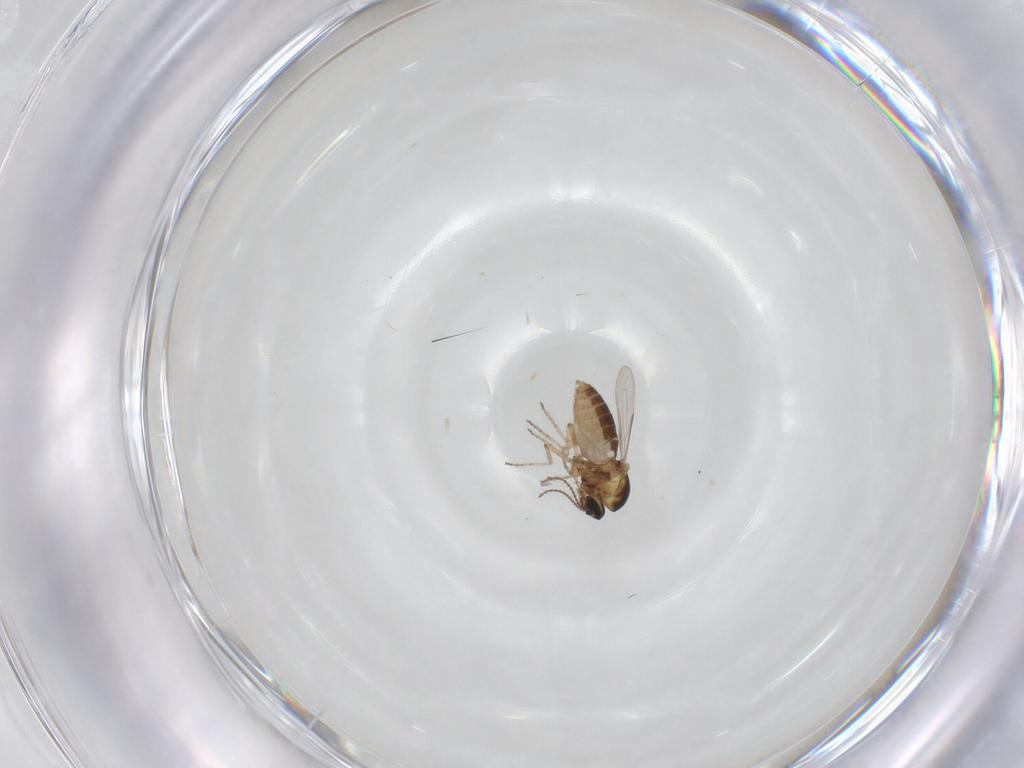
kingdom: Animalia
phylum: Arthropoda
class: Insecta
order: Diptera
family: Ceratopogonidae
